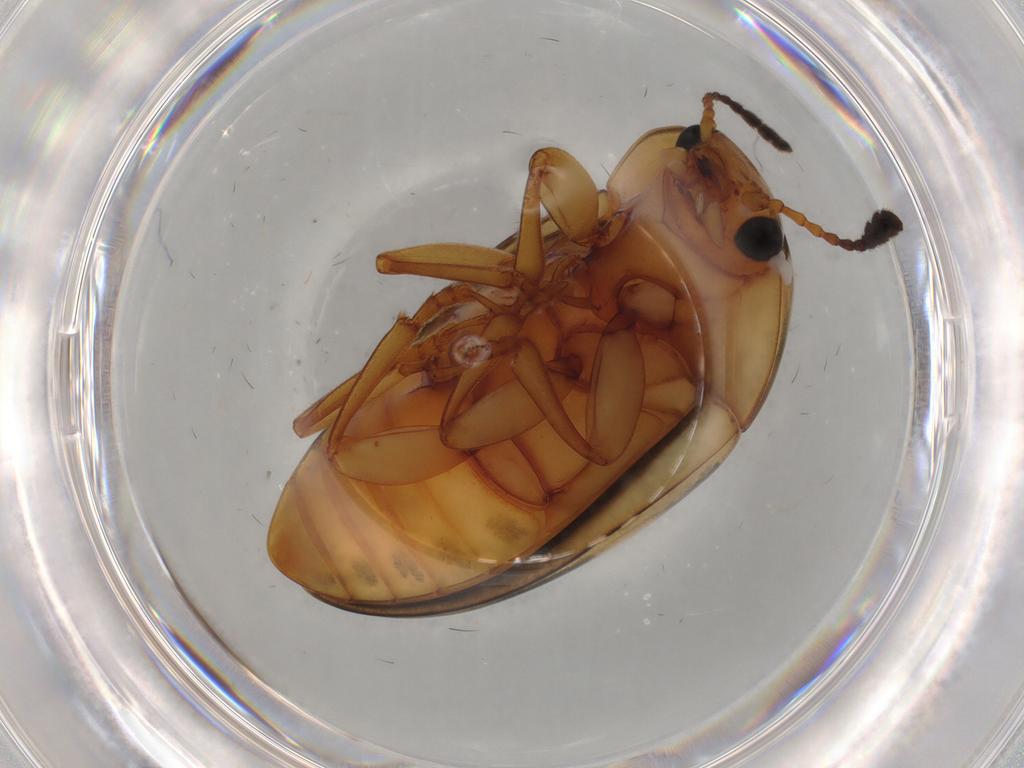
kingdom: Animalia
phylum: Arthropoda
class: Insecta
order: Coleoptera
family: Erotylidae
